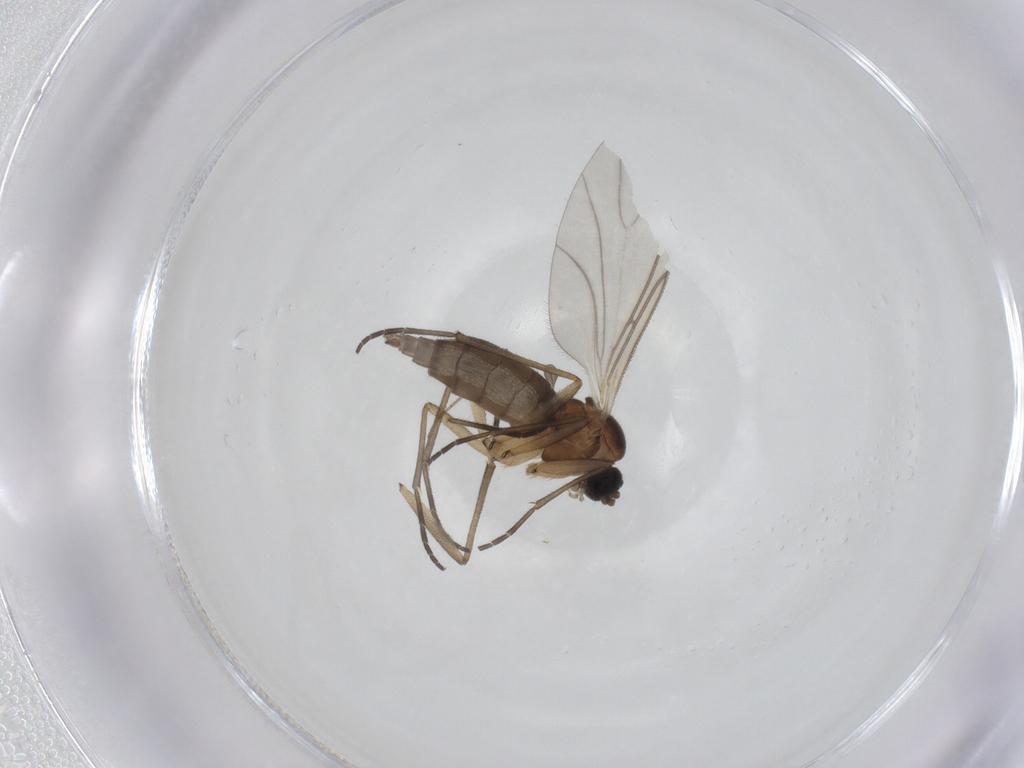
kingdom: Animalia
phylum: Arthropoda
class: Insecta
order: Diptera
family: Sciaridae
